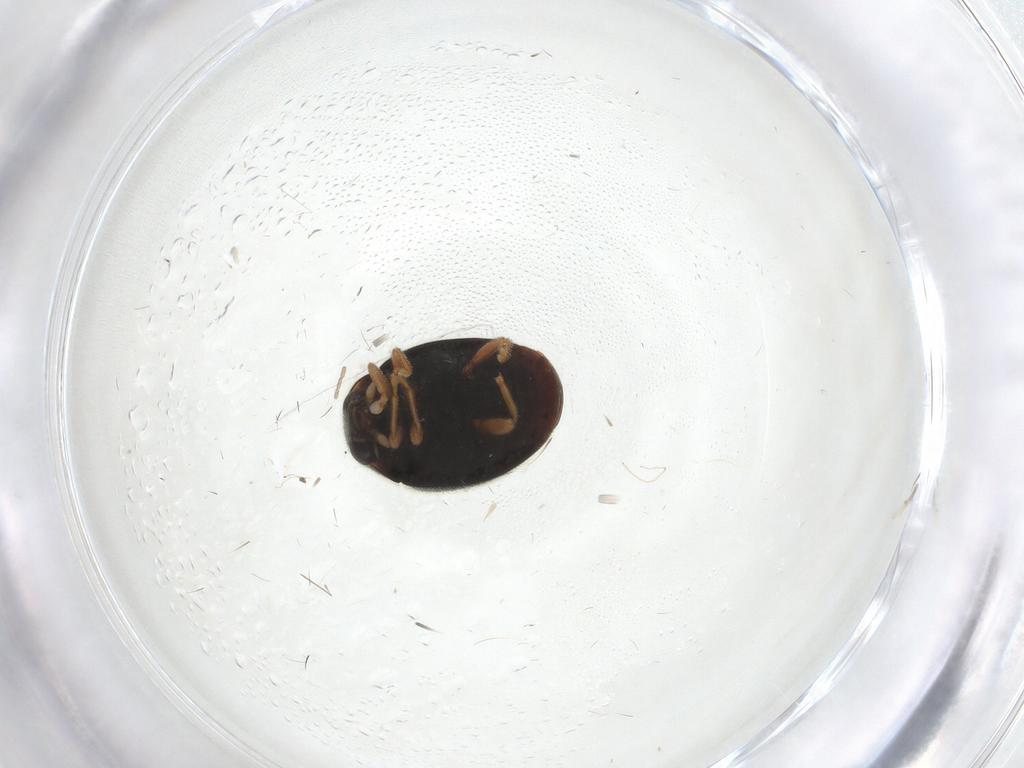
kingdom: Animalia
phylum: Arthropoda
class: Insecta
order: Coleoptera
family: Coccinellidae
